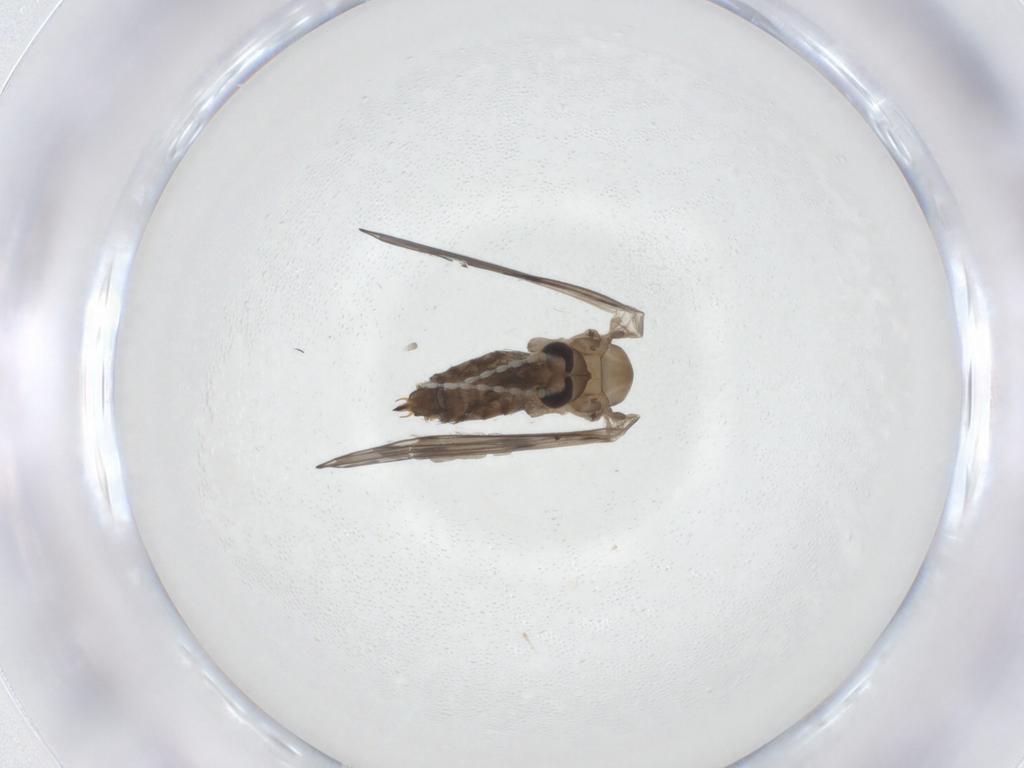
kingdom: Animalia
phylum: Arthropoda
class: Insecta
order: Diptera
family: Psychodidae
